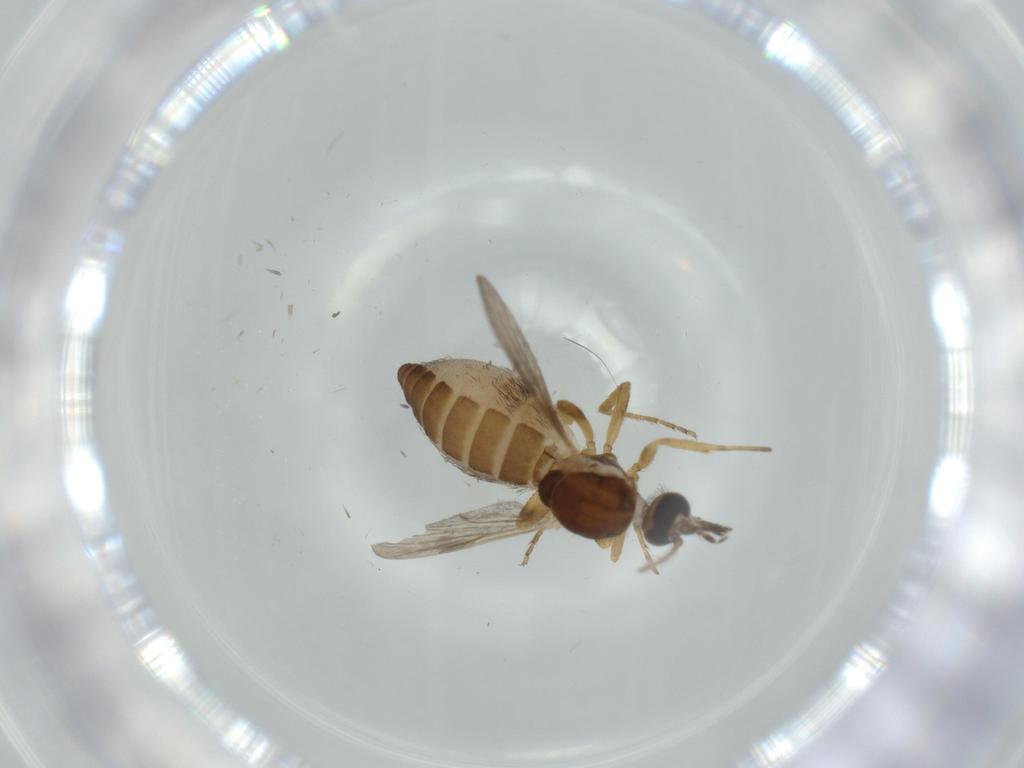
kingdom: Animalia
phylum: Arthropoda
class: Insecta
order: Diptera
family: Ceratopogonidae
